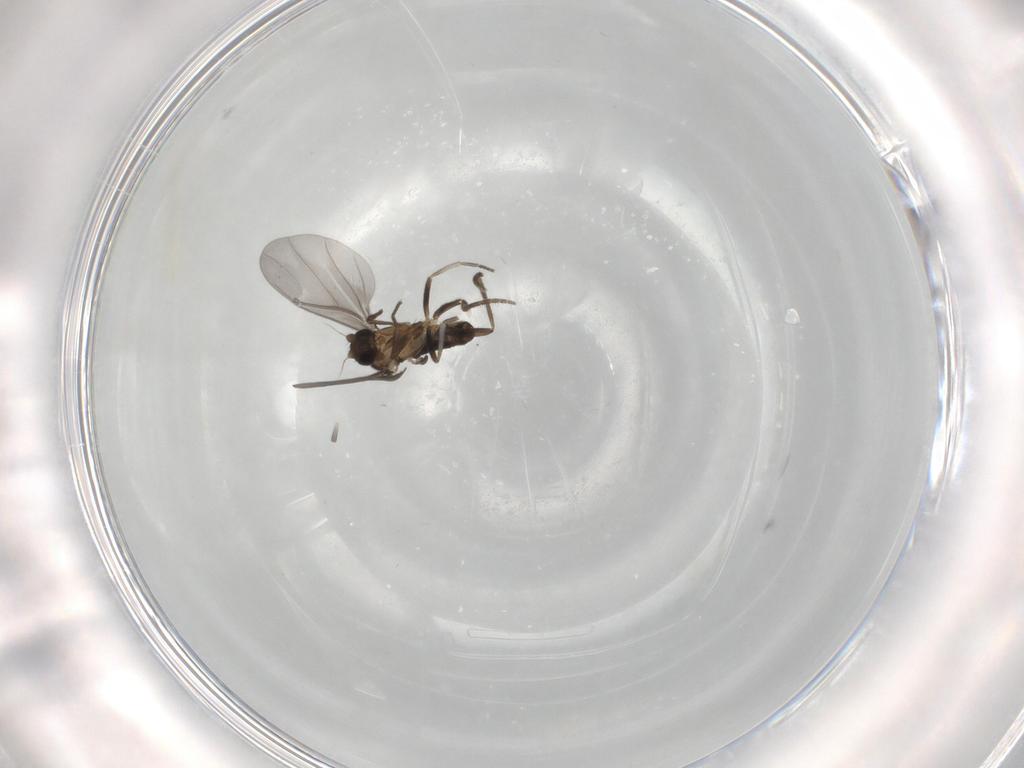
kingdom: Animalia
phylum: Arthropoda
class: Insecta
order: Diptera
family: Phoridae
